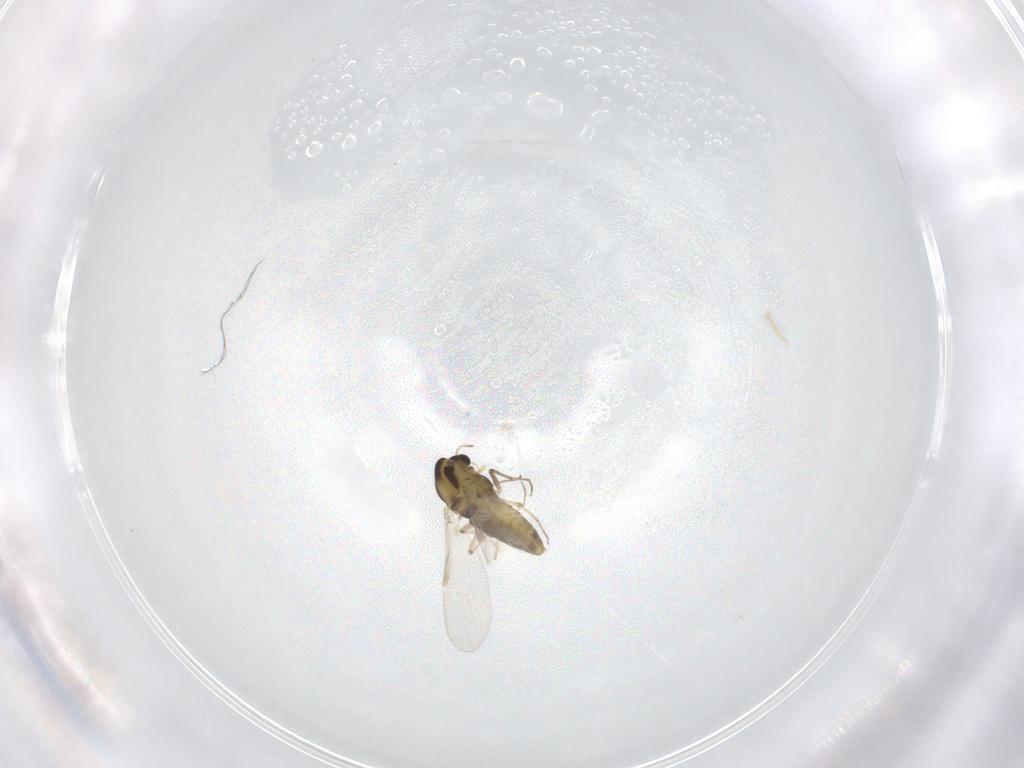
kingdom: Animalia
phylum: Arthropoda
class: Insecta
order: Diptera
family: Chironomidae
